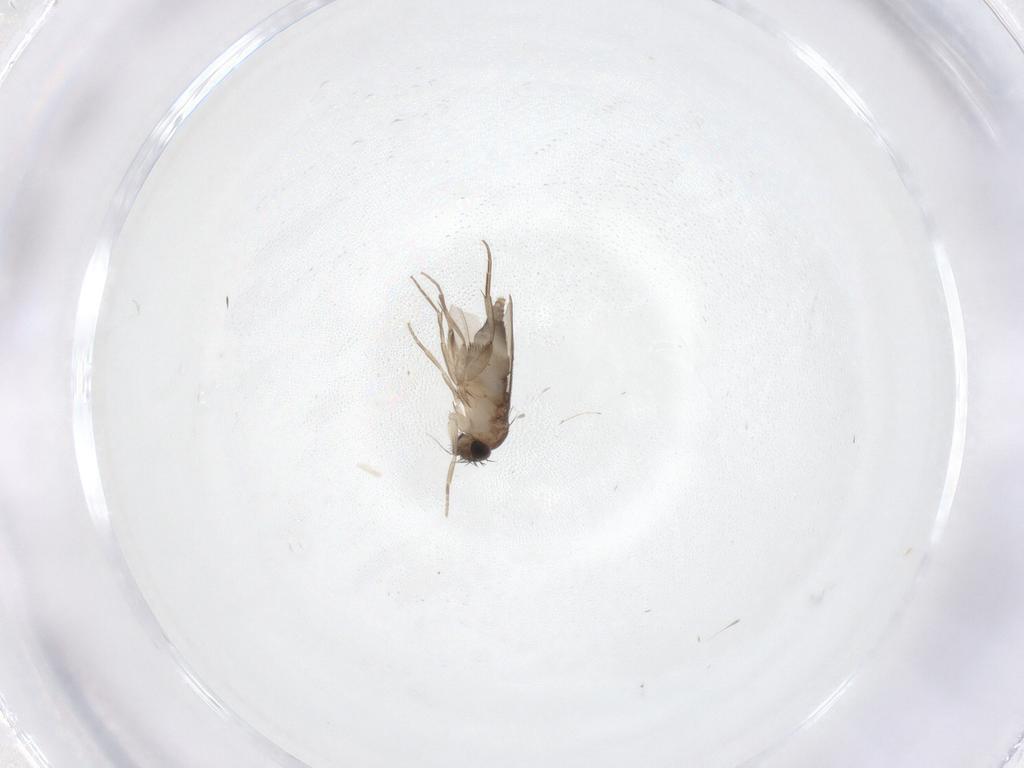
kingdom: Animalia
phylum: Arthropoda
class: Insecta
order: Diptera
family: Phoridae
